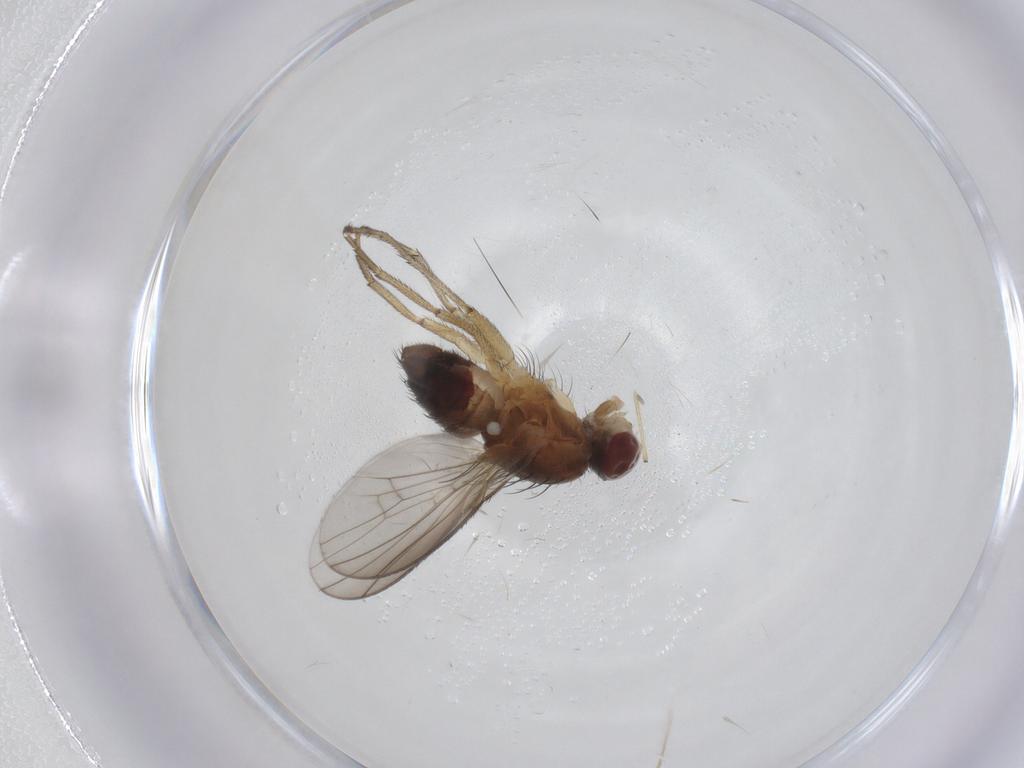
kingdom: Animalia
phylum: Arthropoda
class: Insecta
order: Diptera
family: Heleomyzidae
